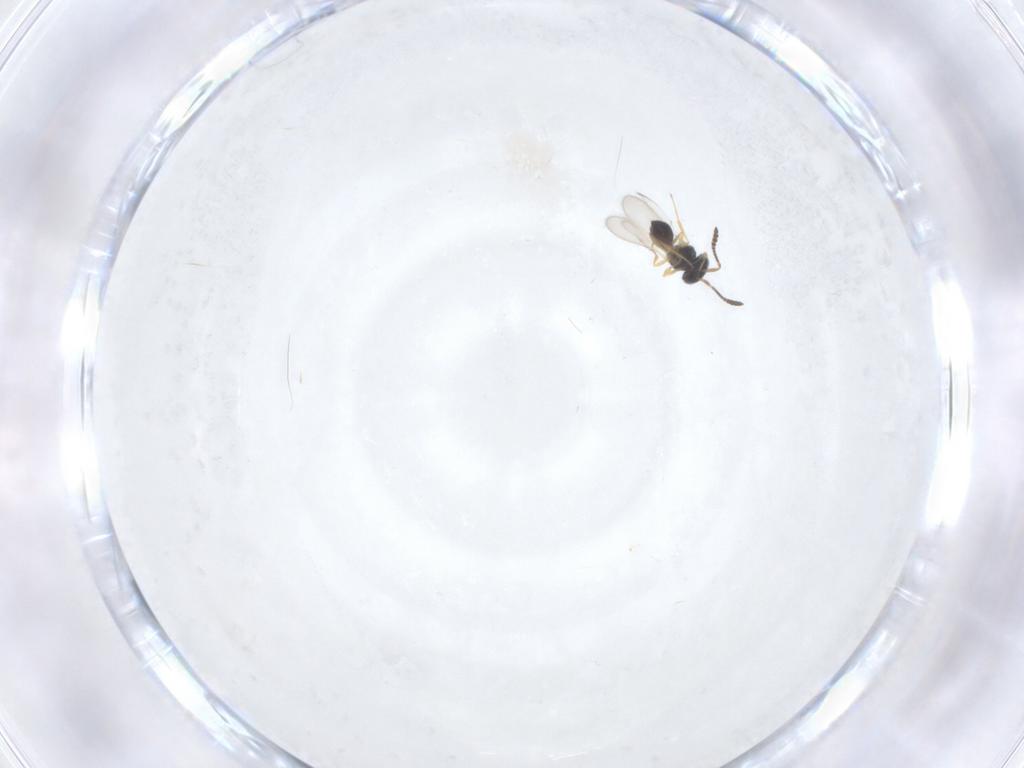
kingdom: Animalia
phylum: Arthropoda
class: Insecta
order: Hymenoptera
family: Scelionidae
